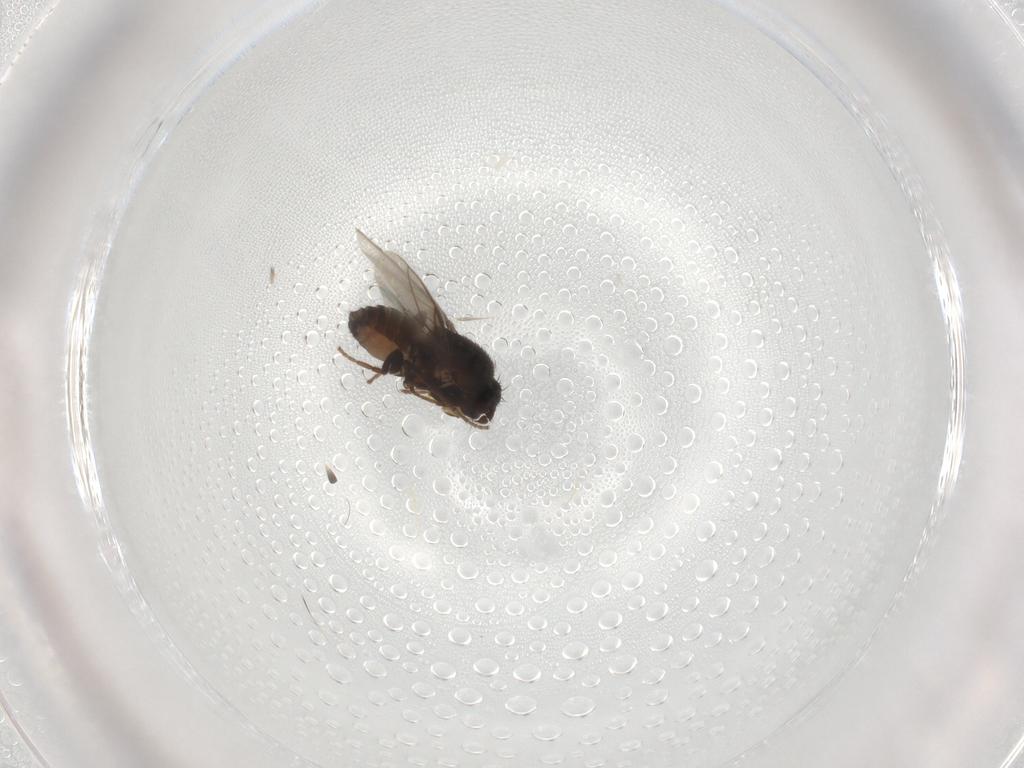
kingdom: Animalia
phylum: Arthropoda
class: Insecta
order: Diptera
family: Sphaeroceridae
